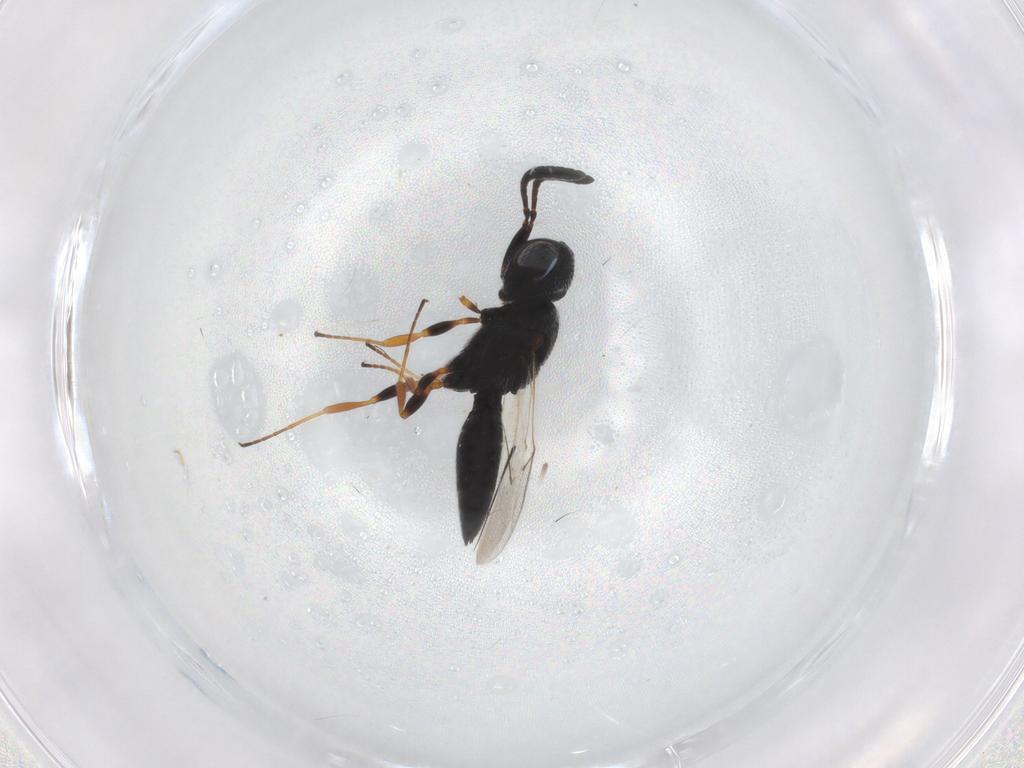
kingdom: Animalia
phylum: Arthropoda
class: Insecta
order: Hymenoptera
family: Scelionidae
